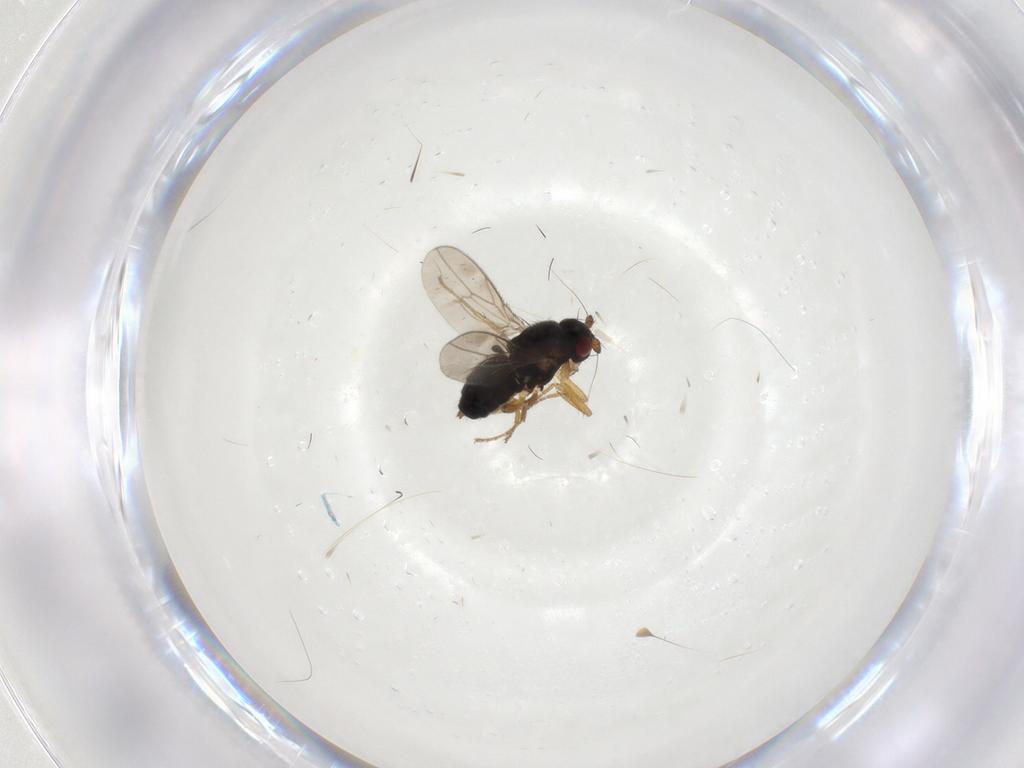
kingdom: Animalia
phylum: Arthropoda
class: Insecta
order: Diptera
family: Sphaeroceridae
